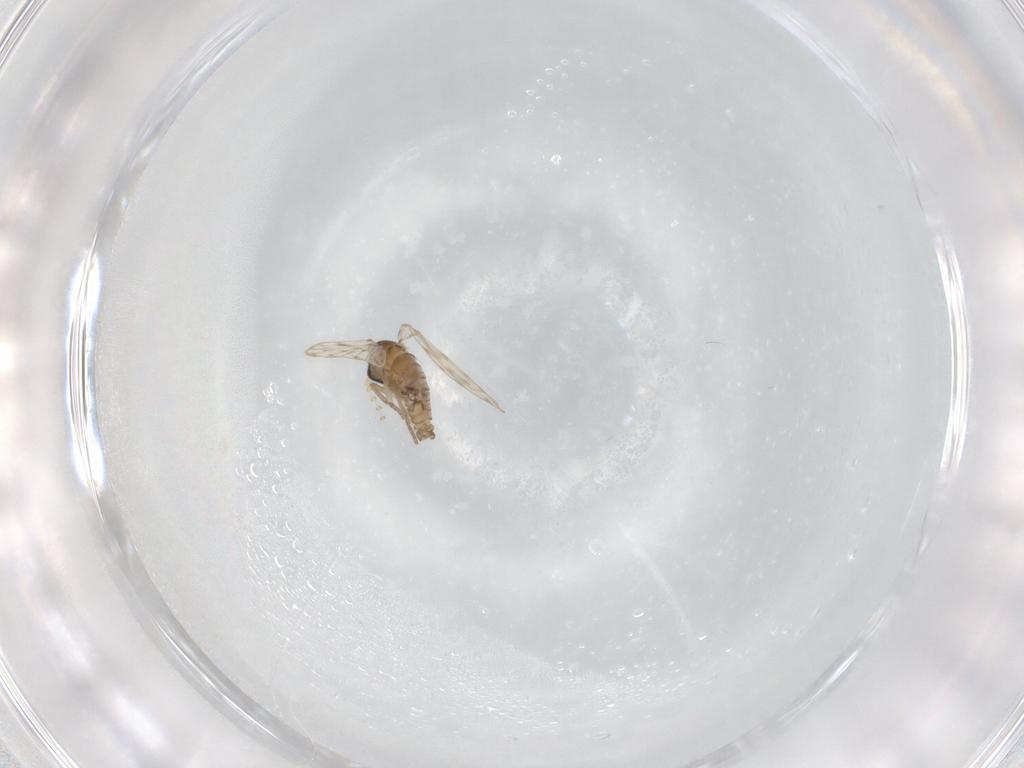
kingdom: Animalia
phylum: Arthropoda
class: Insecta
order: Diptera
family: Psychodidae
